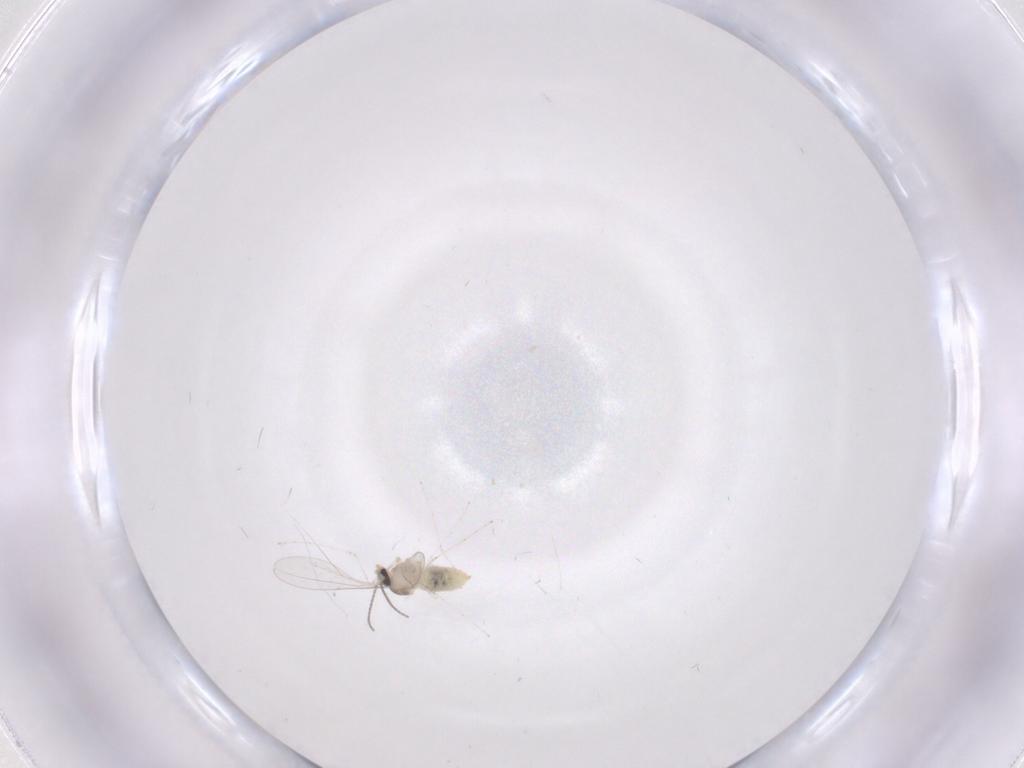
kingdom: Animalia
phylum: Arthropoda
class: Insecta
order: Diptera
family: Cecidomyiidae
